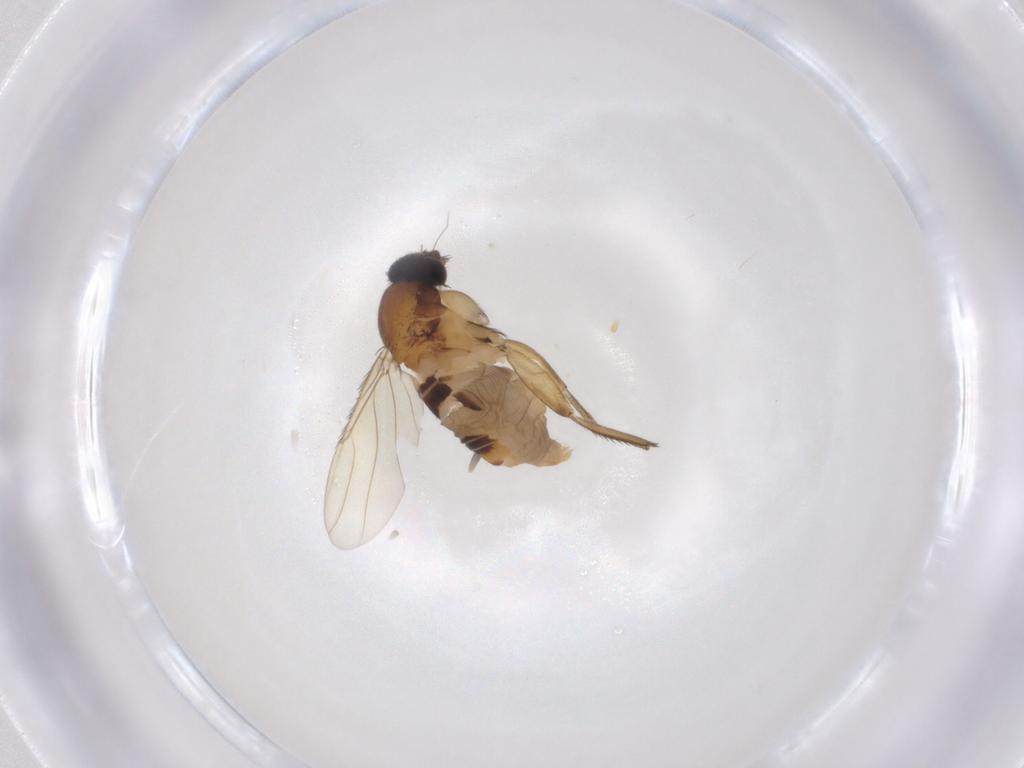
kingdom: Animalia
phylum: Arthropoda
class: Insecta
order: Diptera
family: Phoridae
